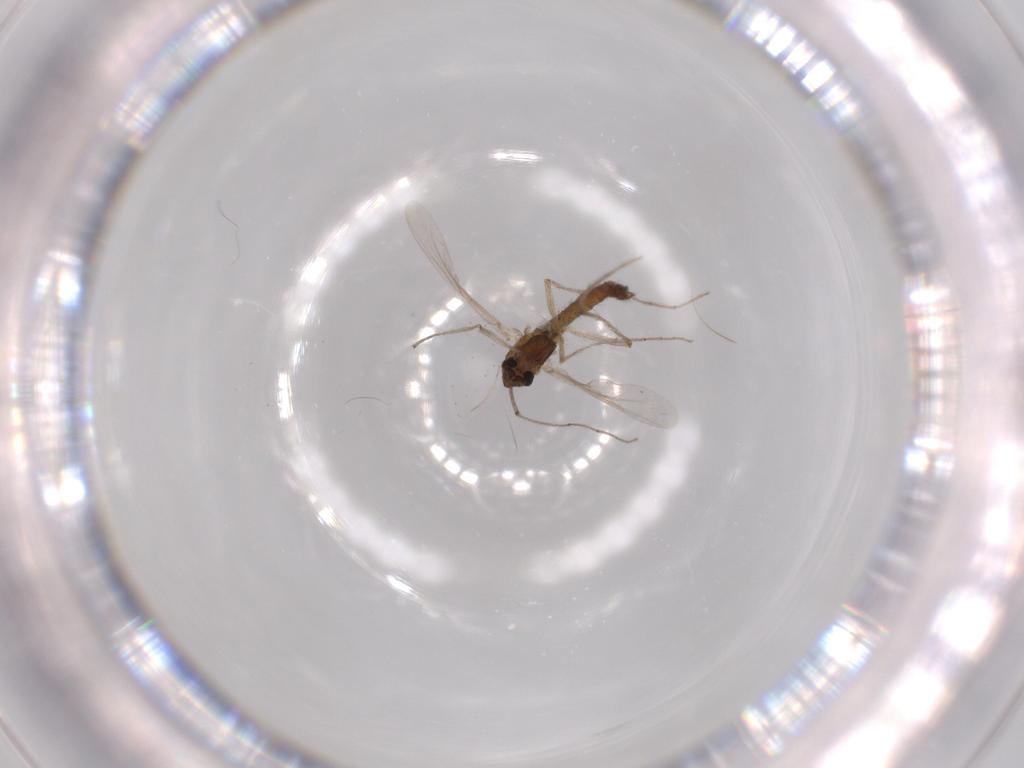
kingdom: Animalia
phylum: Arthropoda
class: Insecta
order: Diptera
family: Chironomidae
